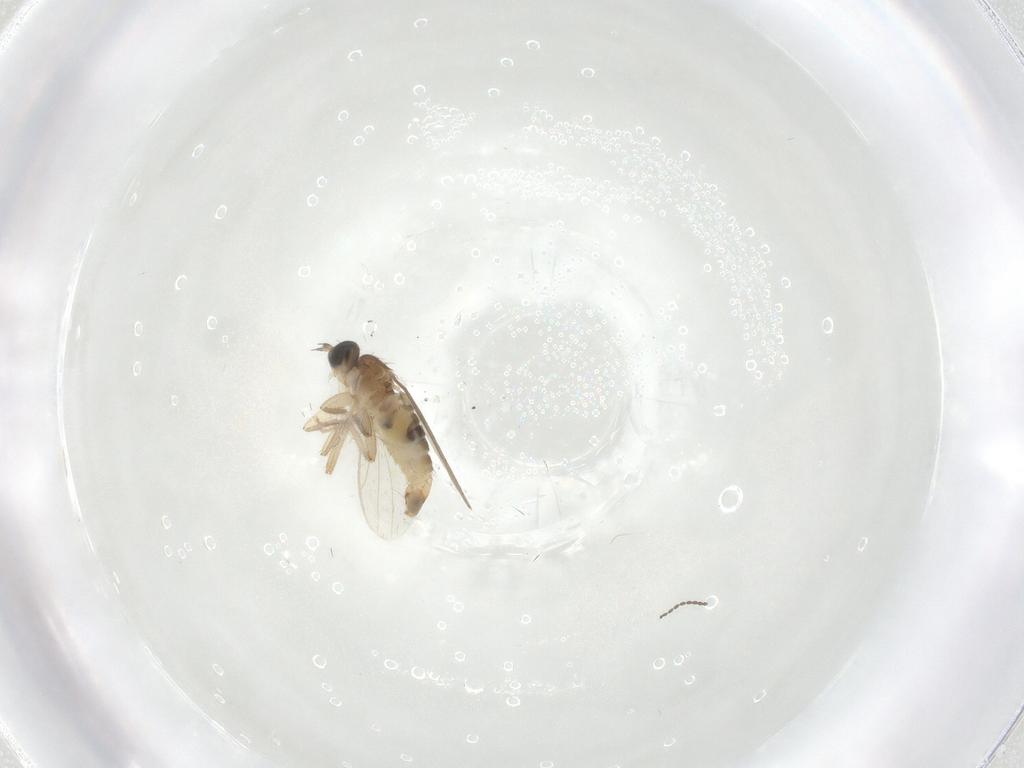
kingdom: Animalia
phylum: Arthropoda
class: Insecta
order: Diptera
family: Hybotidae
